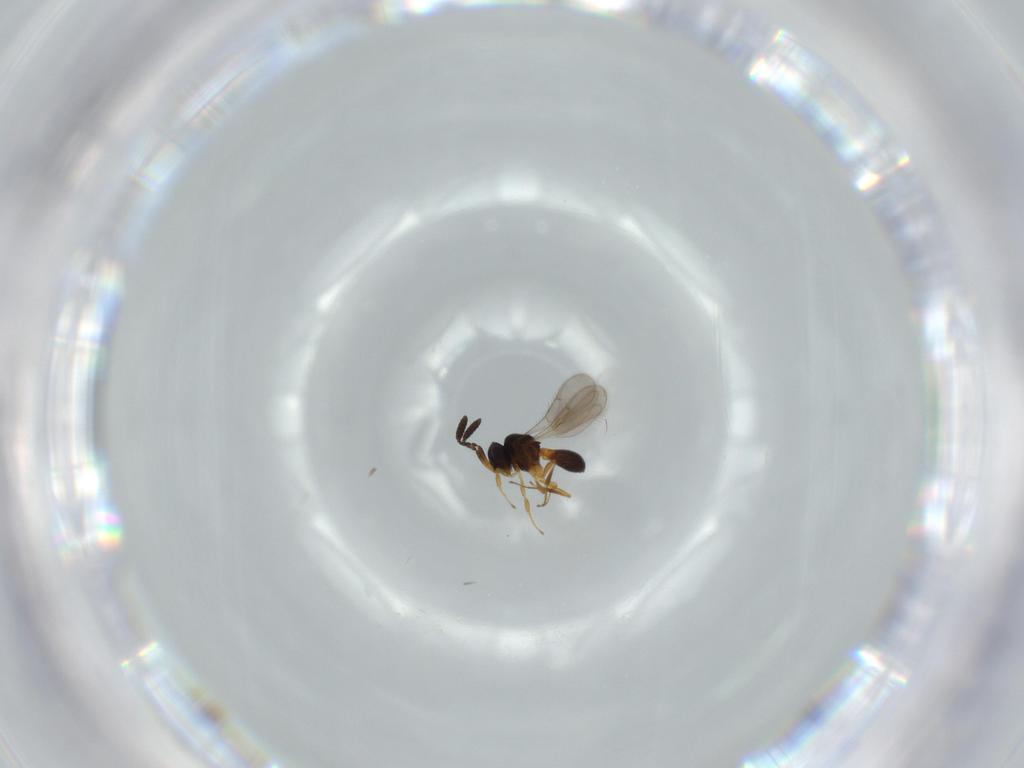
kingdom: Animalia
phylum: Arthropoda
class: Insecta
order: Hymenoptera
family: Scelionidae
